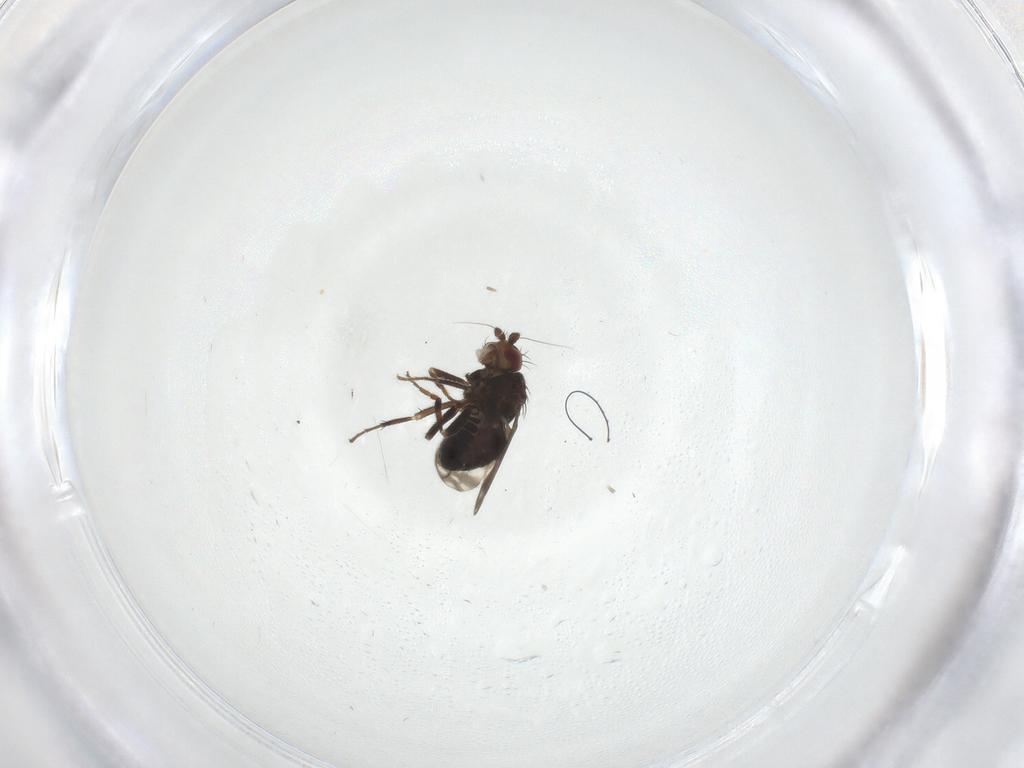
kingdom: Animalia
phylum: Arthropoda
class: Insecta
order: Diptera
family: Sphaeroceridae
